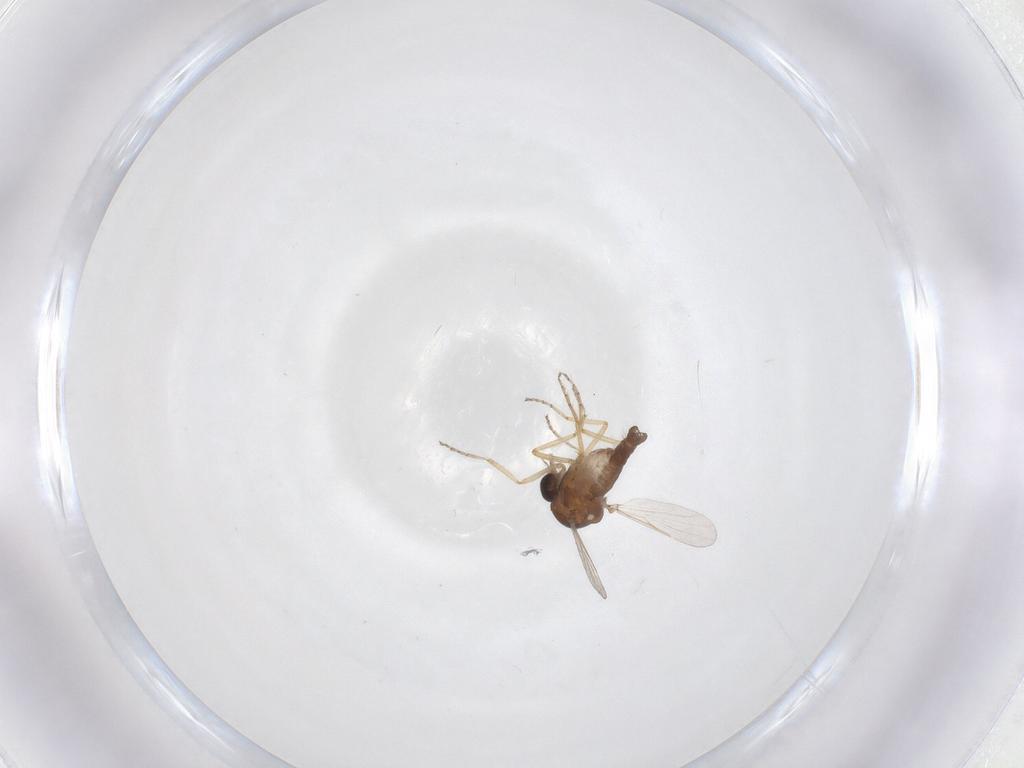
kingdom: Animalia
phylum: Arthropoda
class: Insecta
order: Diptera
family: Ceratopogonidae
